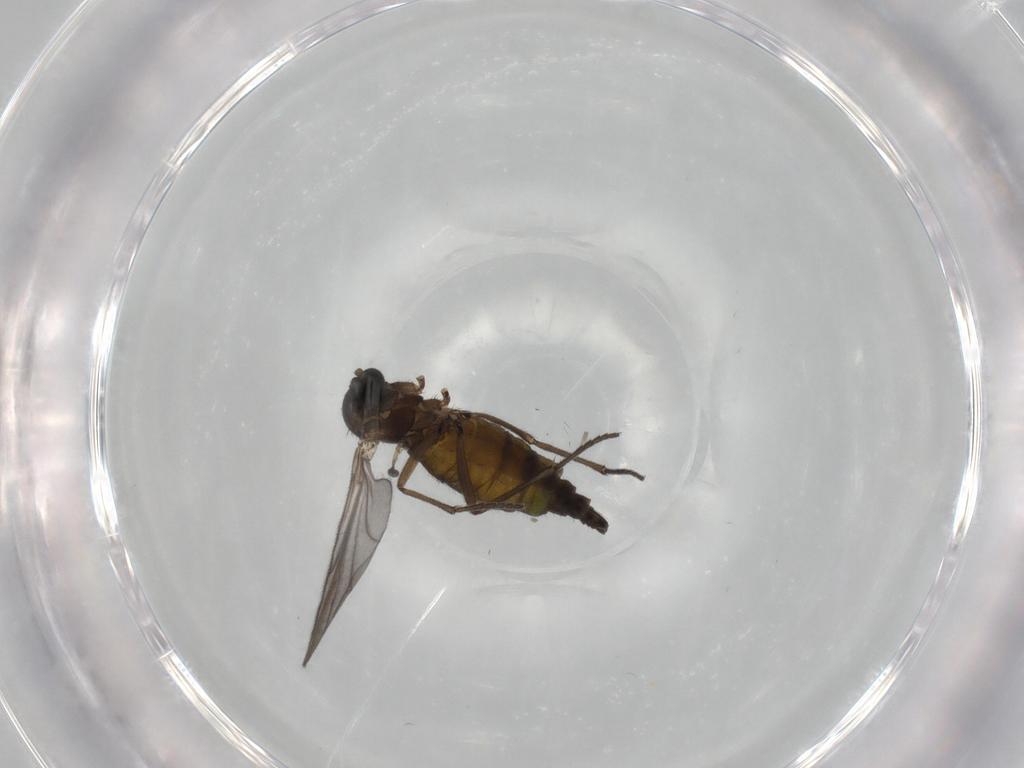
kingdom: Animalia
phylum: Arthropoda
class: Insecta
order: Diptera
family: Sciaridae
